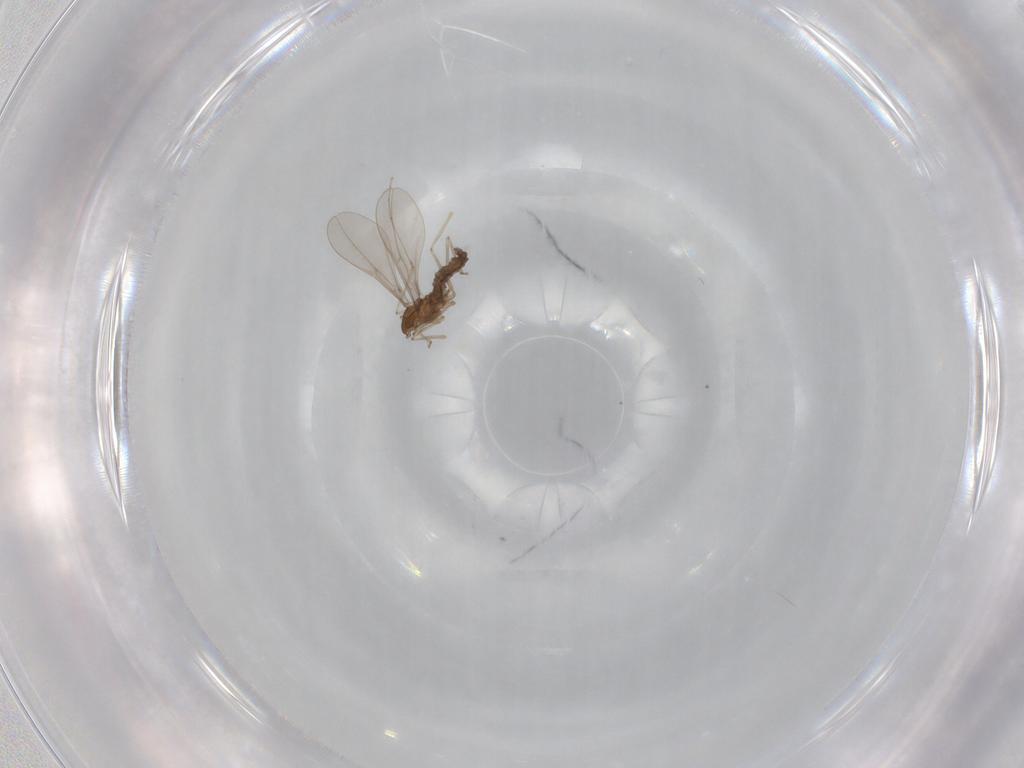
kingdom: Animalia
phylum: Arthropoda
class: Insecta
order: Diptera
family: Cecidomyiidae
